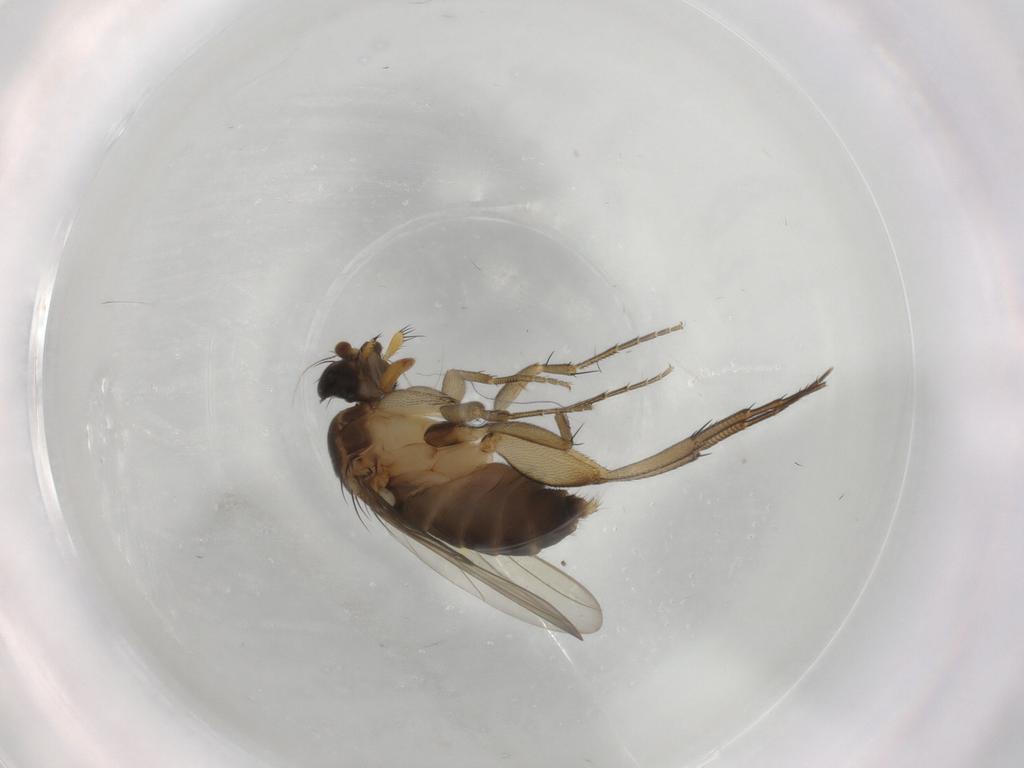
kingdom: Animalia
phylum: Arthropoda
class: Insecta
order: Diptera
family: Phoridae
